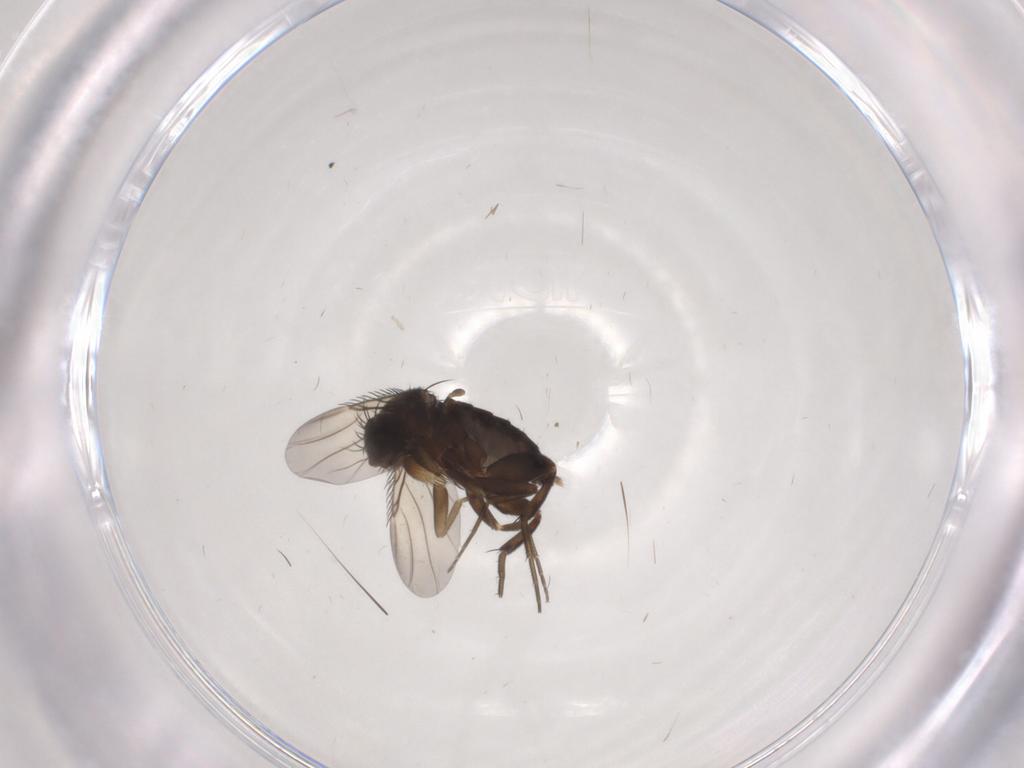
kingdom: Animalia
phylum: Arthropoda
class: Insecta
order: Diptera
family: Phoridae
